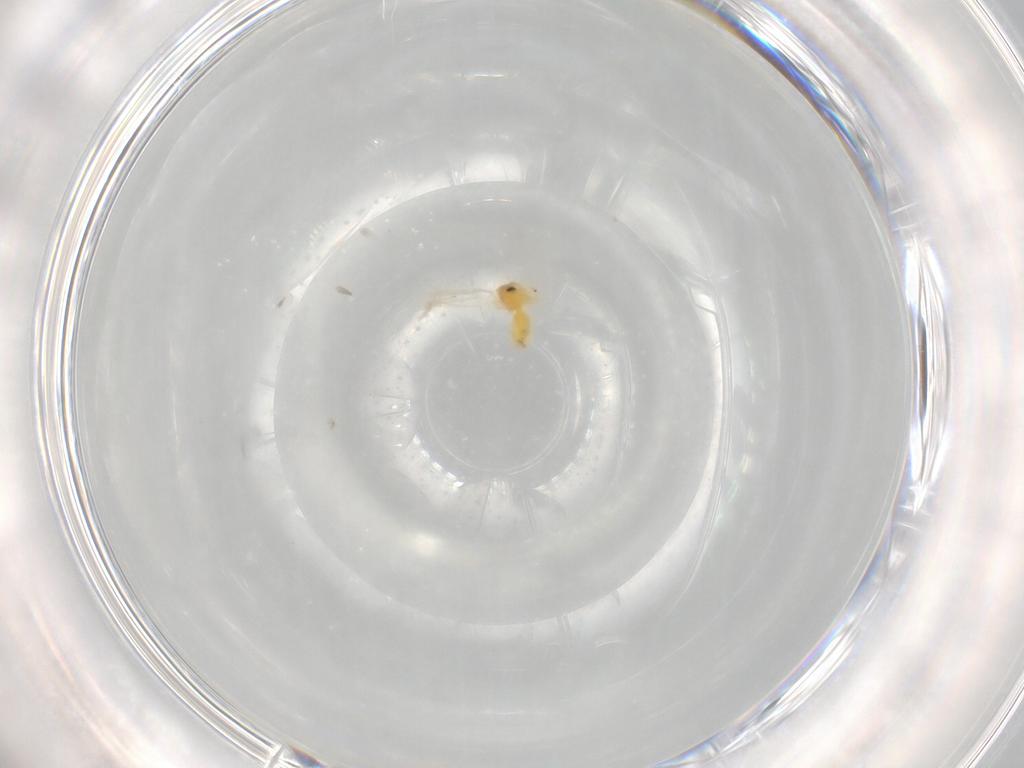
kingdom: Animalia
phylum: Arthropoda
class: Insecta
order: Hemiptera
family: Aleyrodidae
